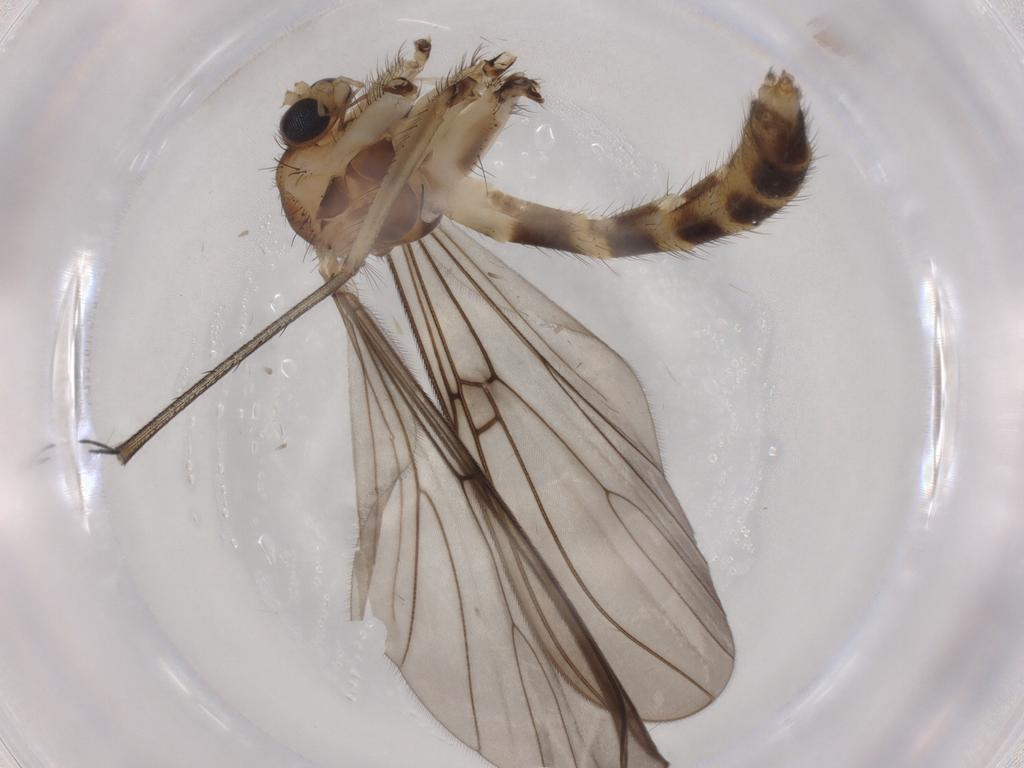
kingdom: Animalia
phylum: Arthropoda
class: Insecta
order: Diptera
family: Mycetophilidae
